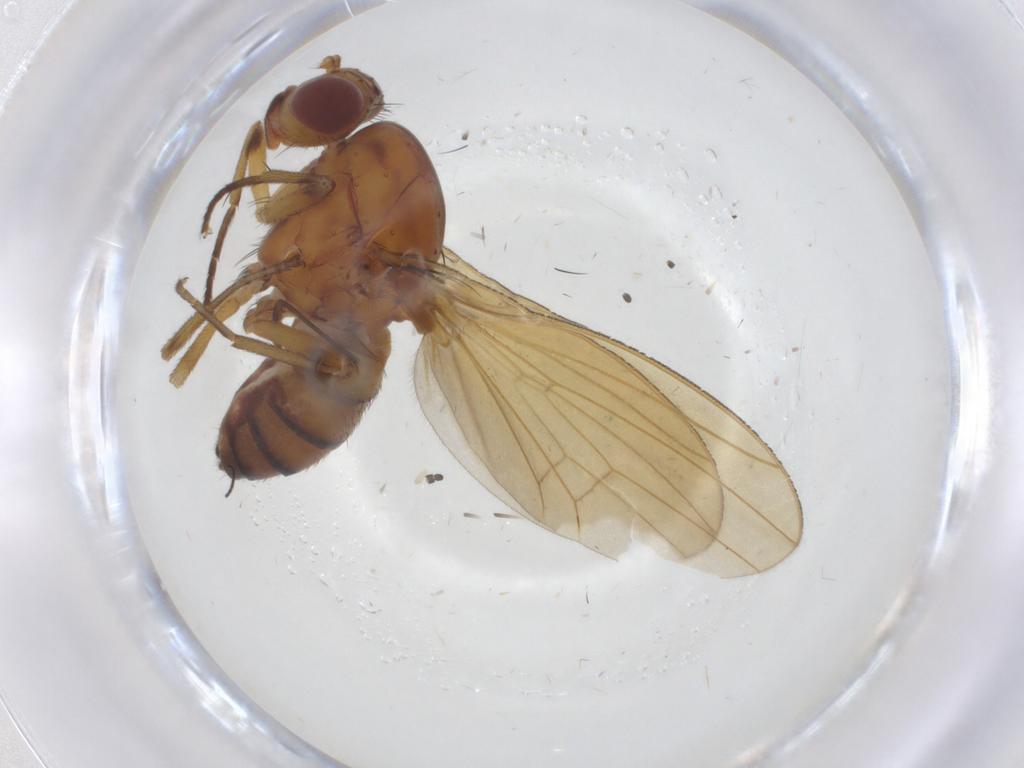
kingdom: Animalia
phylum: Arthropoda
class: Insecta
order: Diptera
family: Sciaridae
